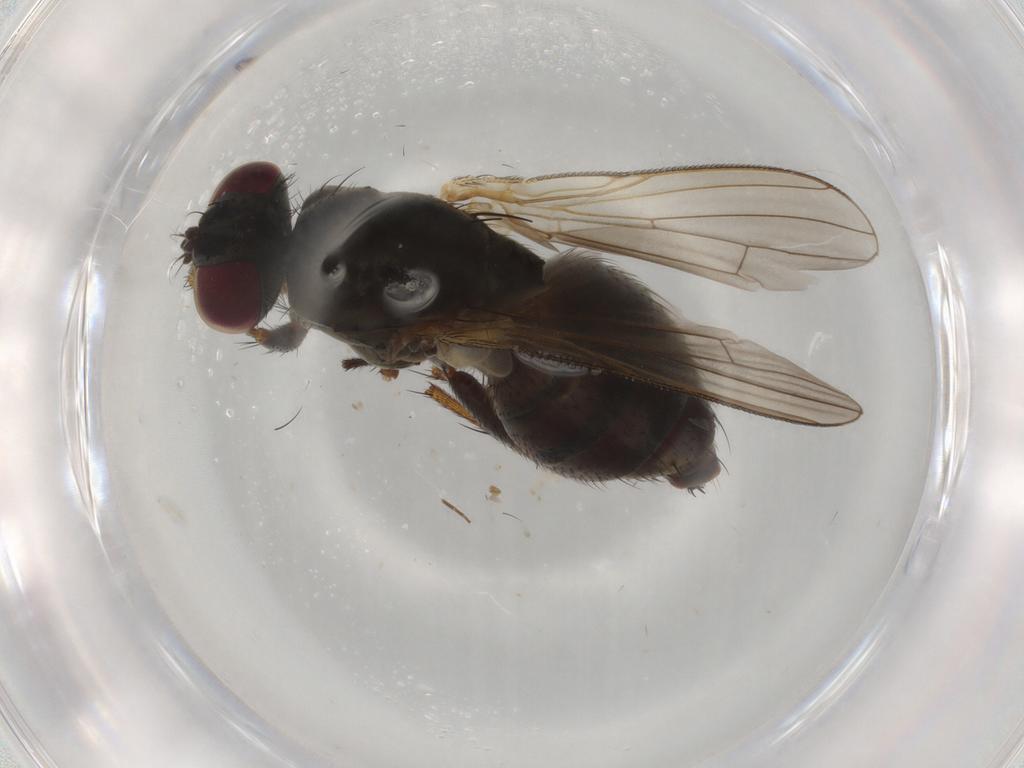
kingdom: Animalia
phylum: Arthropoda
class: Insecta
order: Diptera
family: Muscidae
